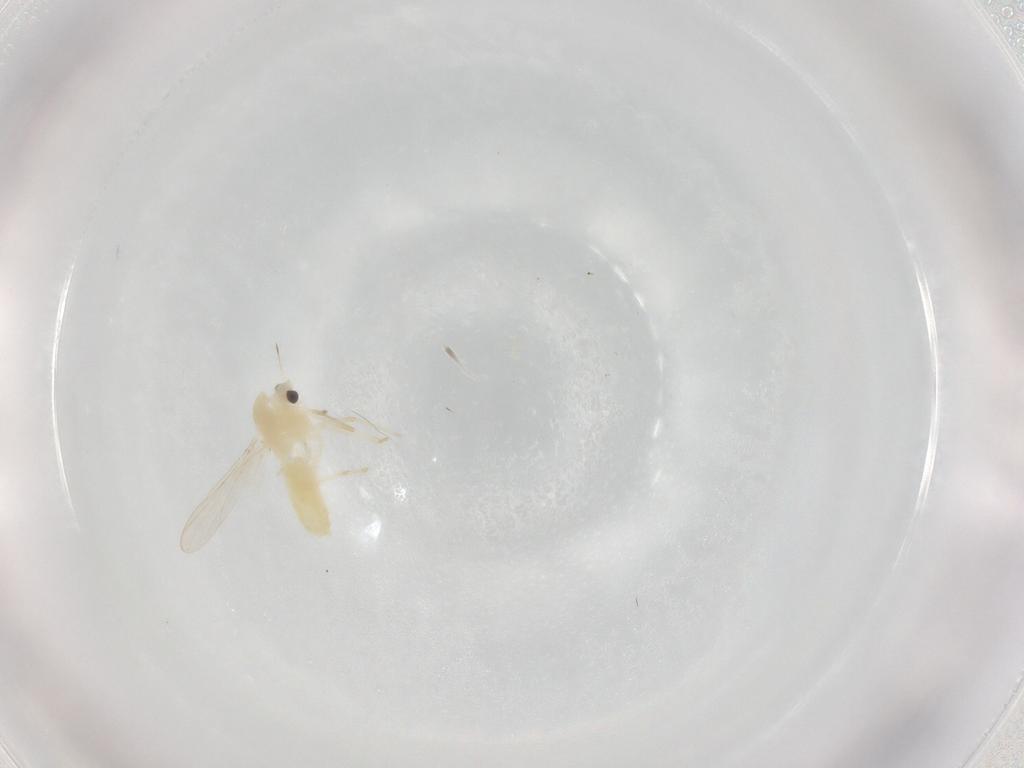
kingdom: Animalia
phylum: Arthropoda
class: Insecta
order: Diptera
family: Chironomidae
